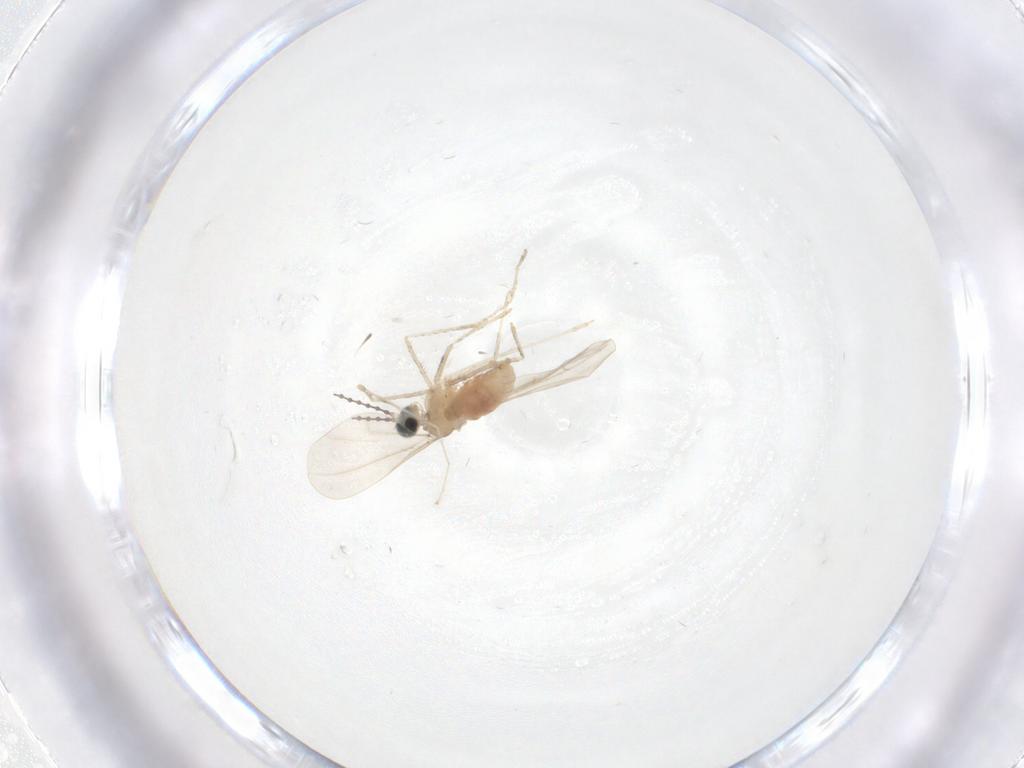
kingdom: Animalia
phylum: Arthropoda
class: Insecta
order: Diptera
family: Cecidomyiidae
